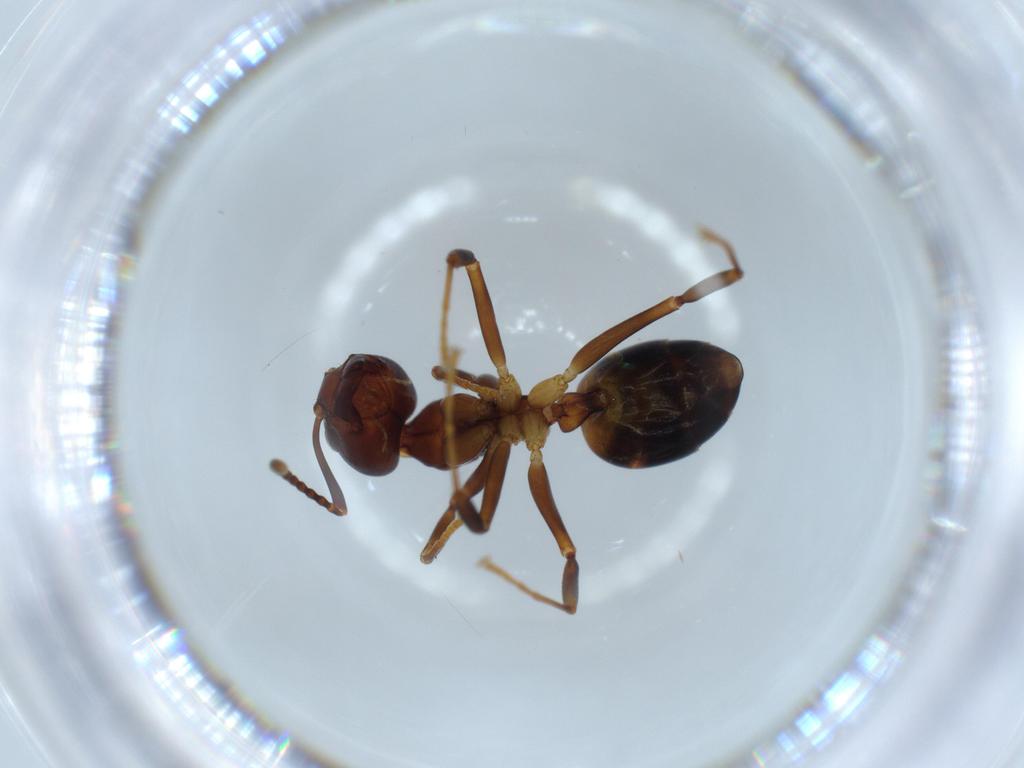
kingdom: Animalia
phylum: Arthropoda
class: Insecta
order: Hymenoptera
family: Formicidae
